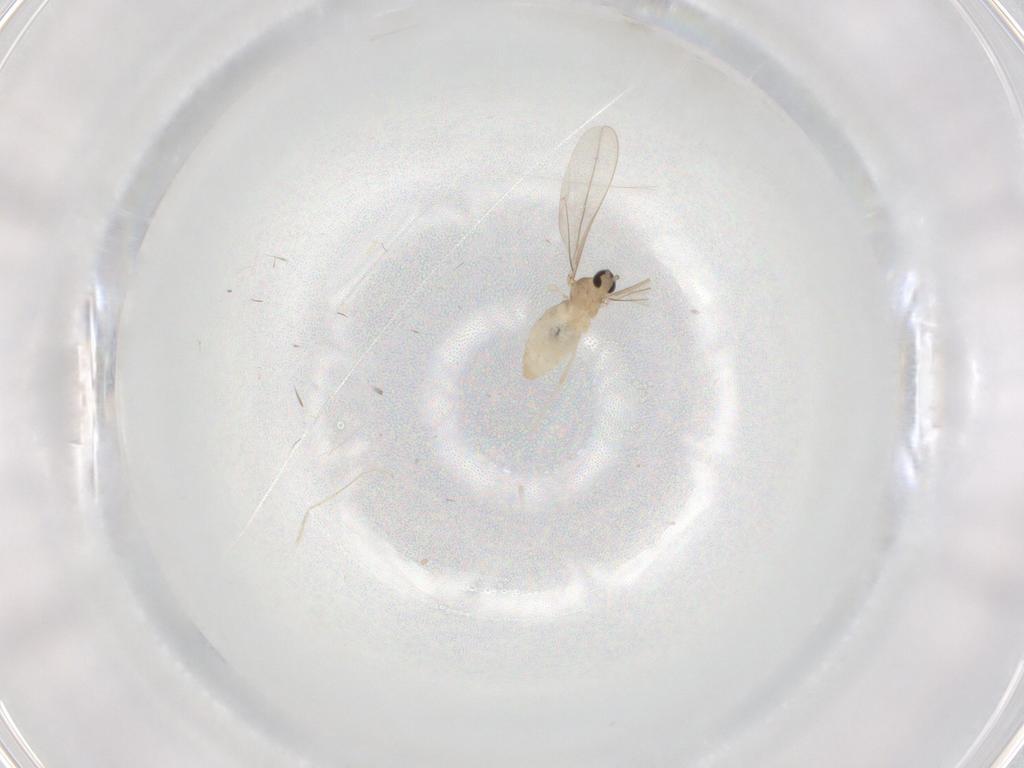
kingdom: Animalia
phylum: Arthropoda
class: Insecta
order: Diptera
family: Cecidomyiidae
